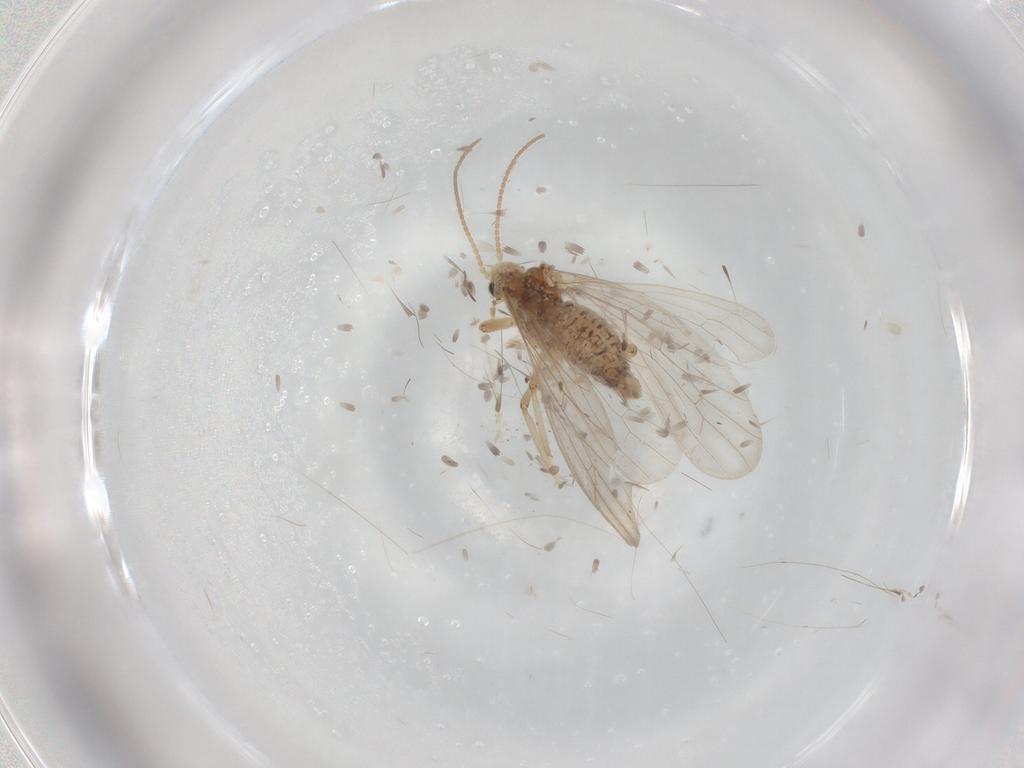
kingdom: Animalia
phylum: Arthropoda
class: Insecta
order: Neuroptera
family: Coniopterygidae
